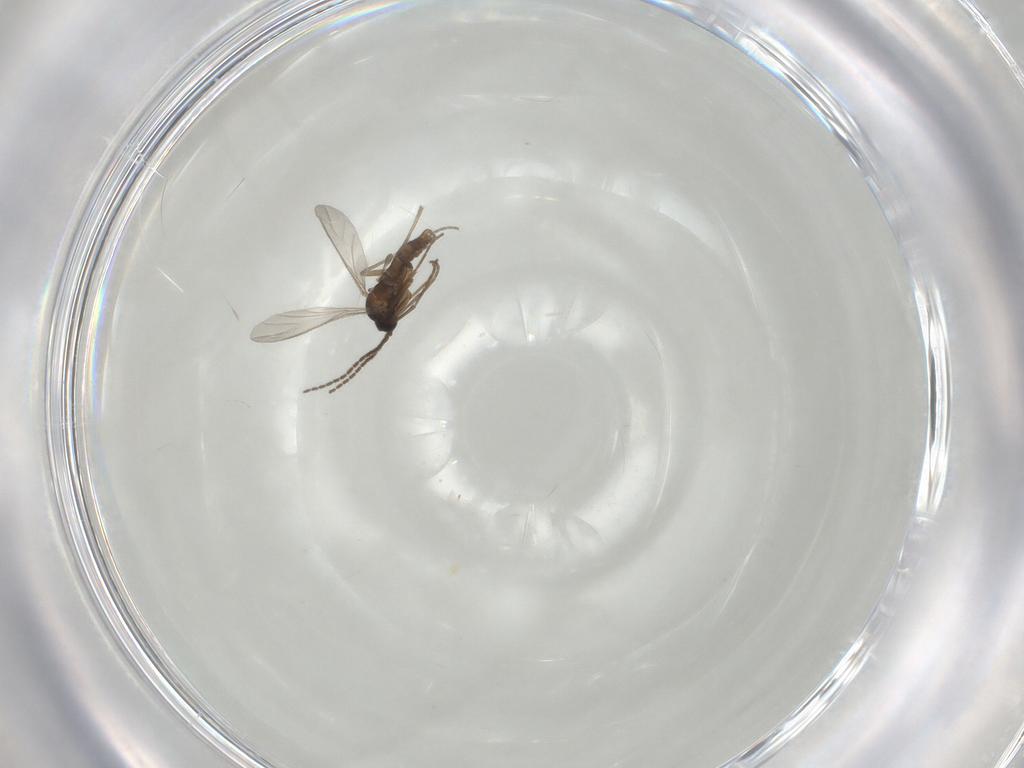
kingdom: Animalia
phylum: Arthropoda
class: Insecta
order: Diptera
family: Sciaridae
